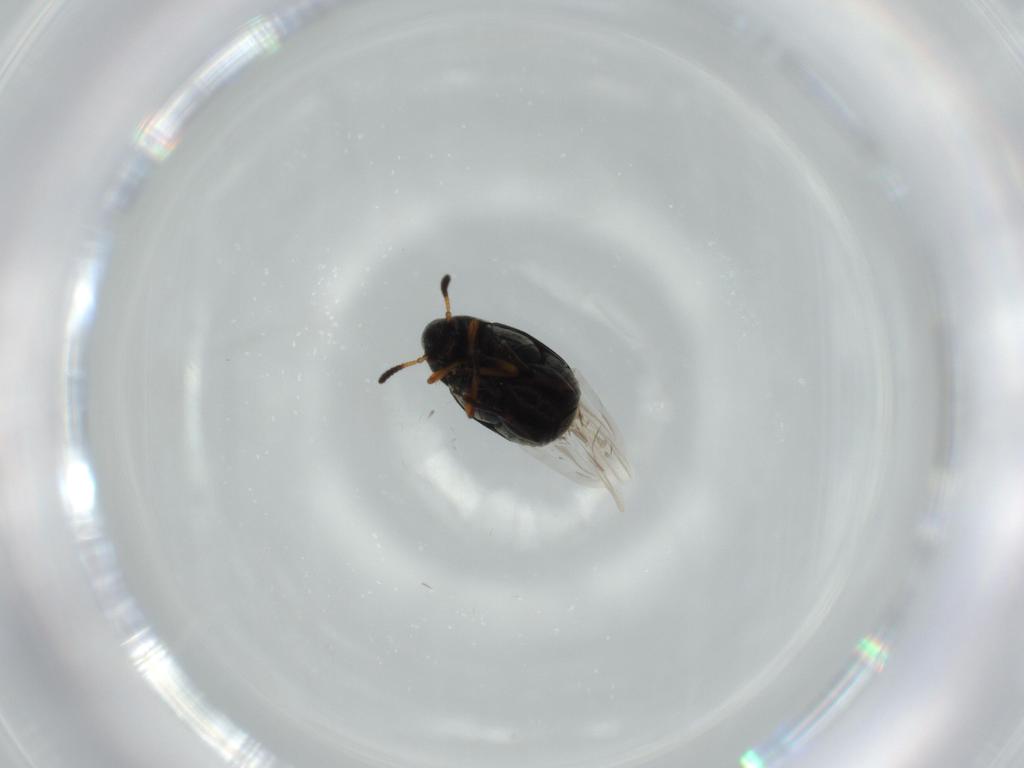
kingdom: Animalia
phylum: Arthropoda
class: Insecta
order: Coleoptera
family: Chrysomelidae
